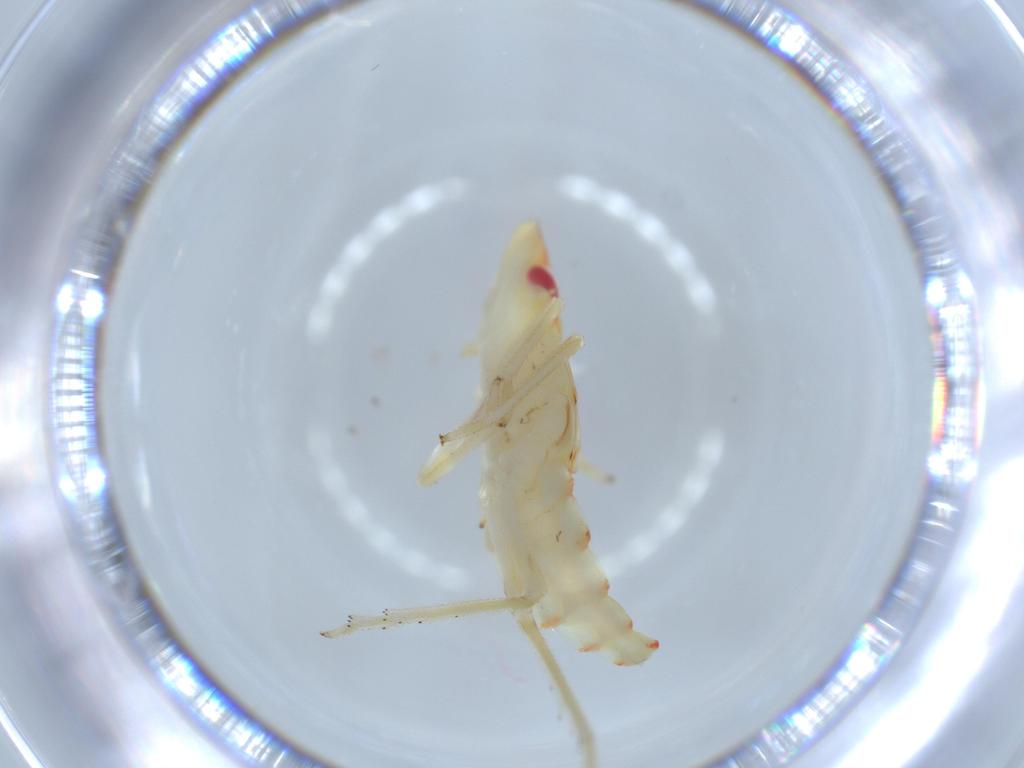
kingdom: Animalia
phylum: Arthropoda
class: Insecta
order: Hemiptera
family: Tropiduchidae
